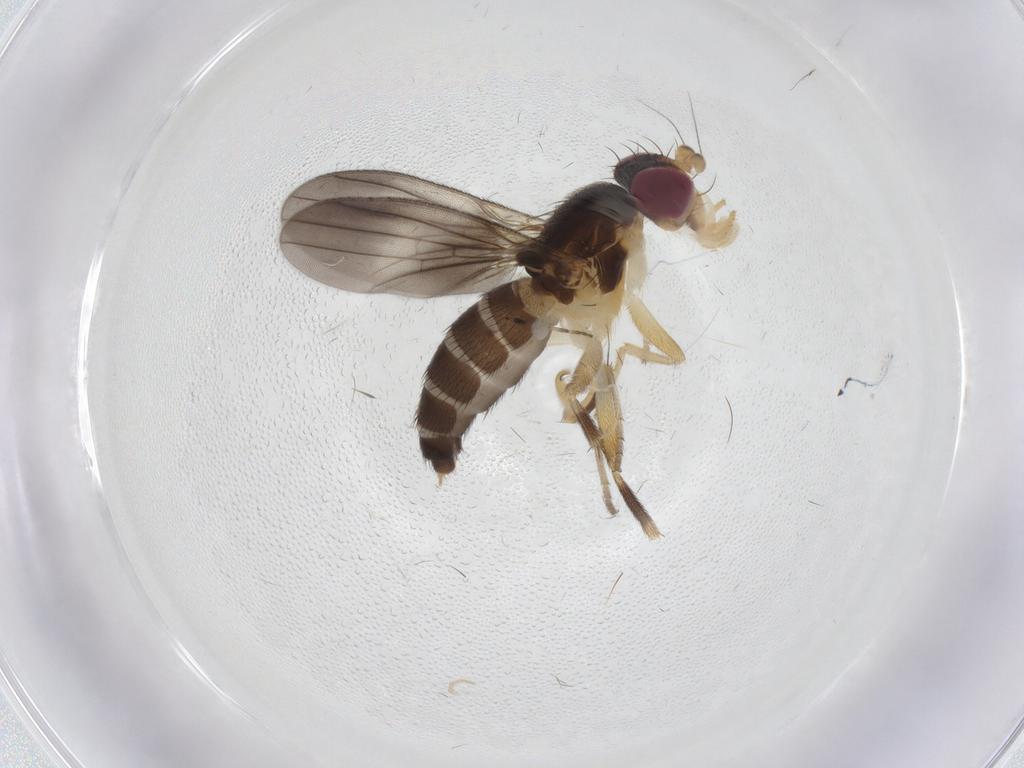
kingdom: Animalia
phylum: Arthropoda
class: Insecta
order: Diptera
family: Clusiidae
